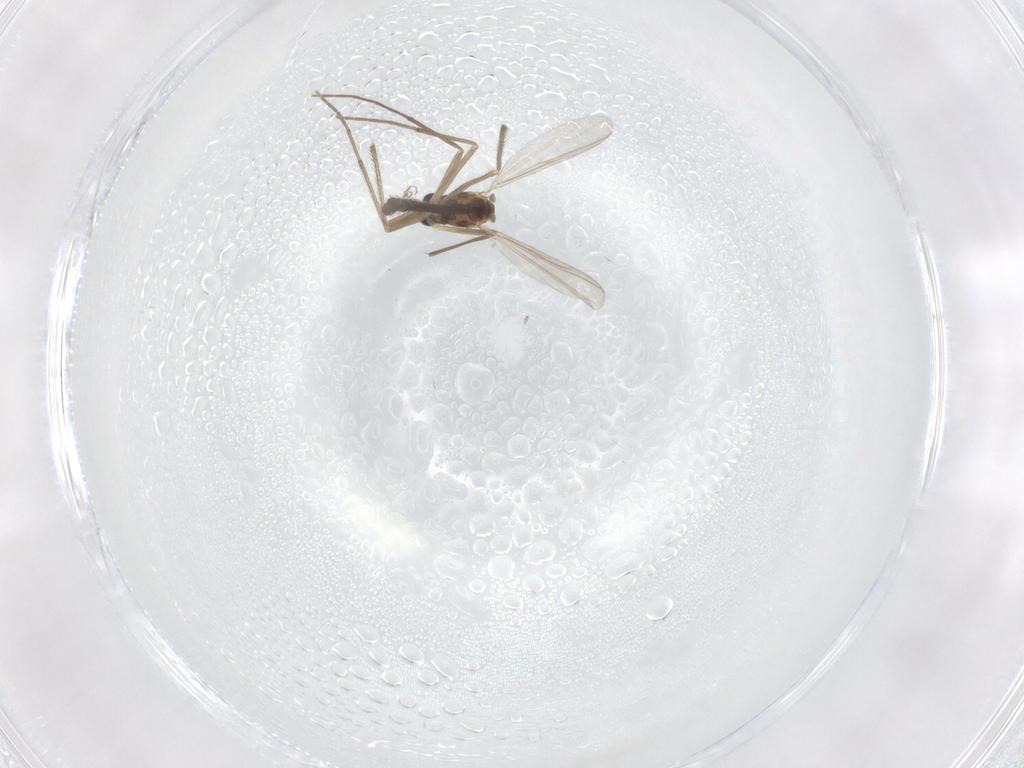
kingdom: Animalia
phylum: Arthropoda
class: Insecta
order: Diptera
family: Chironomidae
